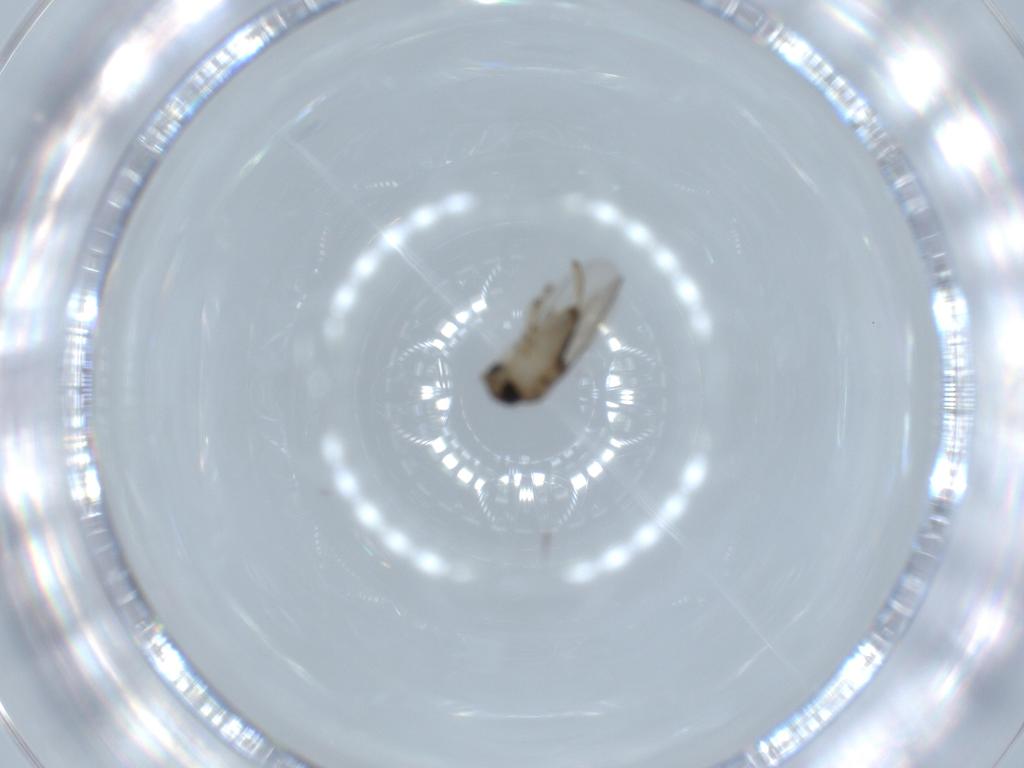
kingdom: Animalia
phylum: Arthropoda
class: Insecta
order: Diptera
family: Phoridae
